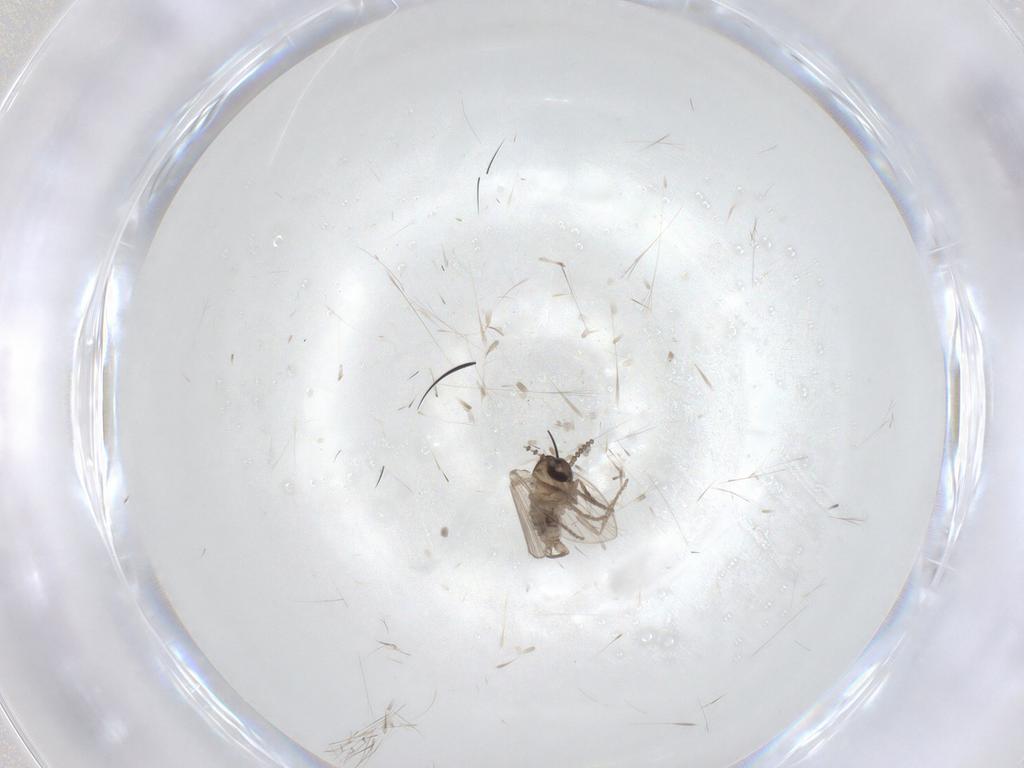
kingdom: Animalia
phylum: Arthropoda
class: Insecta
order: Diptera
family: Psychodidae
